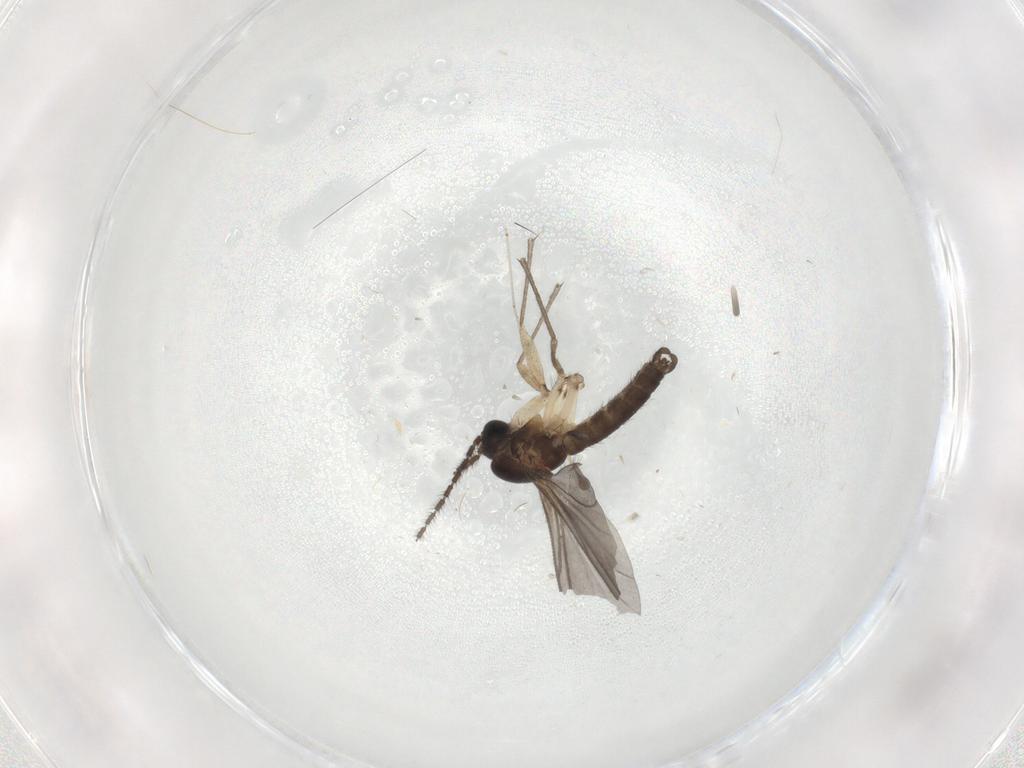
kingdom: Animalia
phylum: Arthropoda
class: Insecta
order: Diptera
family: Sciaridae
